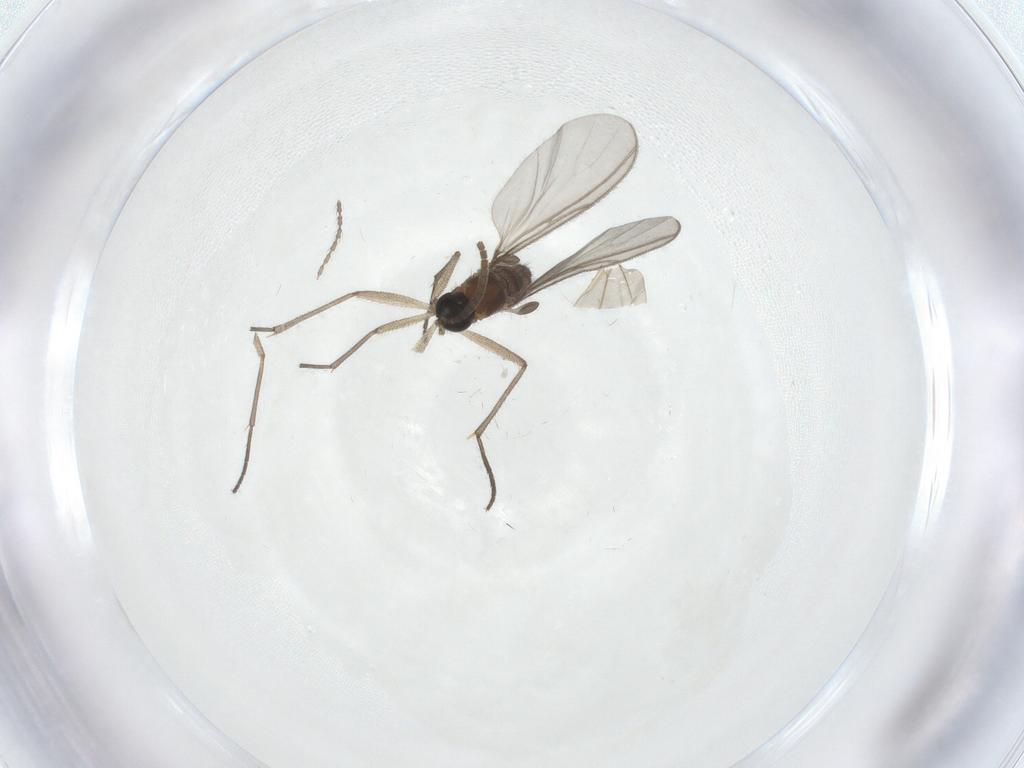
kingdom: Animalia
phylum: Arthropoda
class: Insecta
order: Diptera
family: Cecidomyiidae
